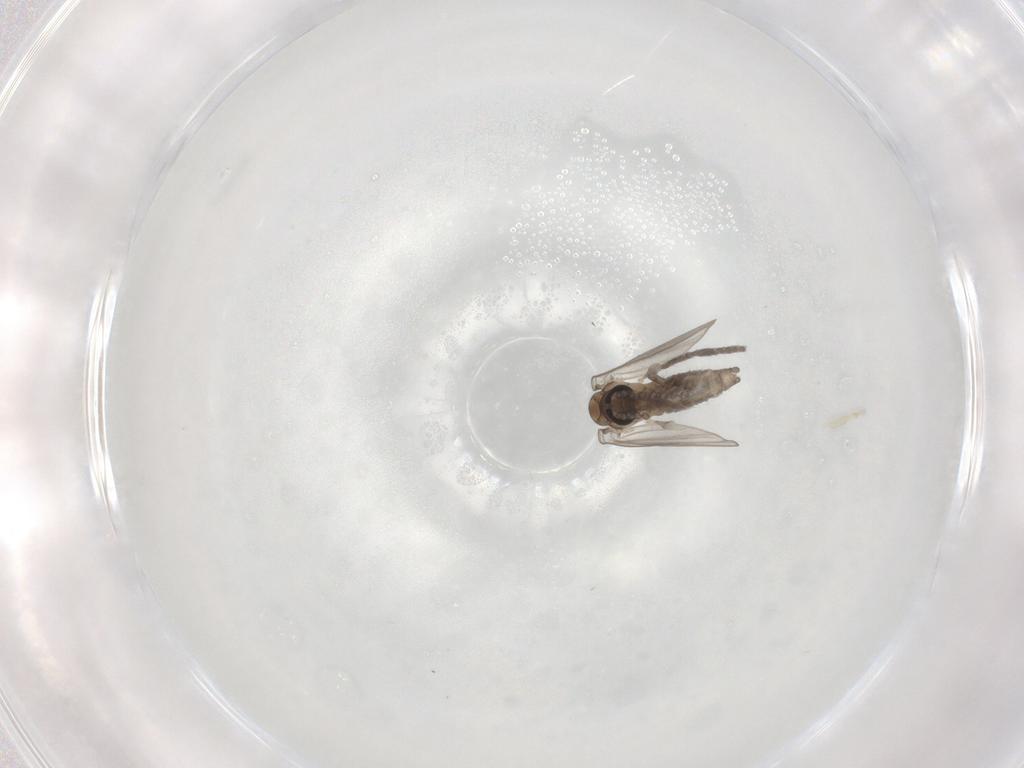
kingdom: Animalia
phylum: Arthropoda
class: Insecta
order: Diptera
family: Psychodidae
